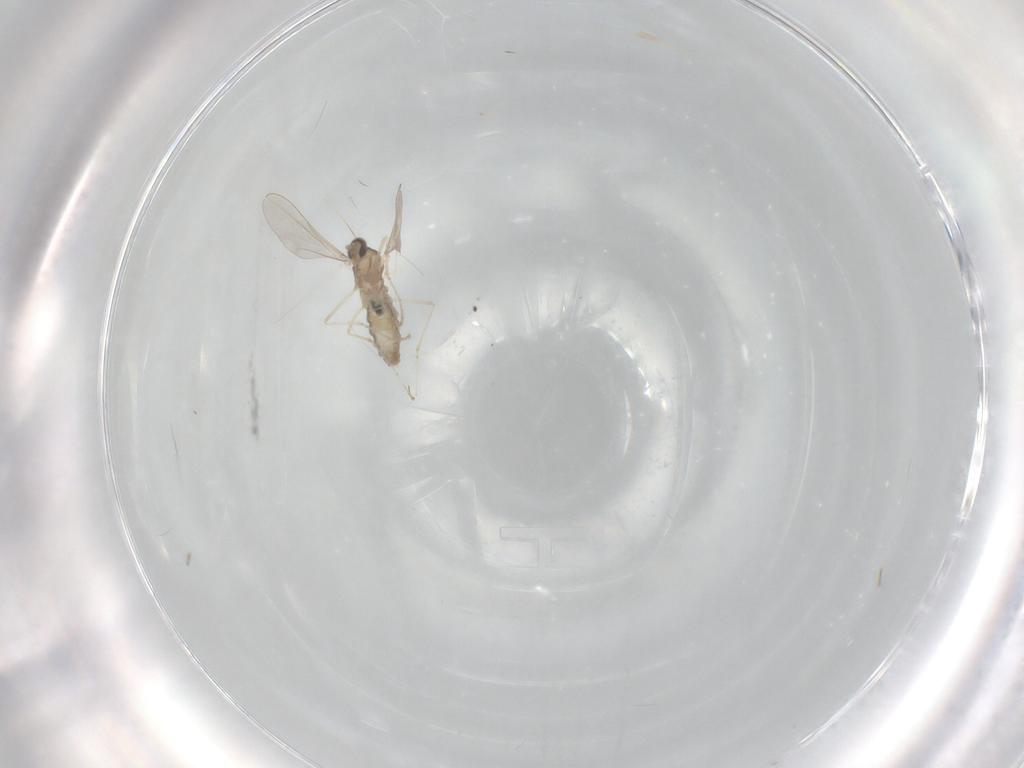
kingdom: Animalia
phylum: Arthropoda
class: Insecta
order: Diptera
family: Cecidomyiidae
